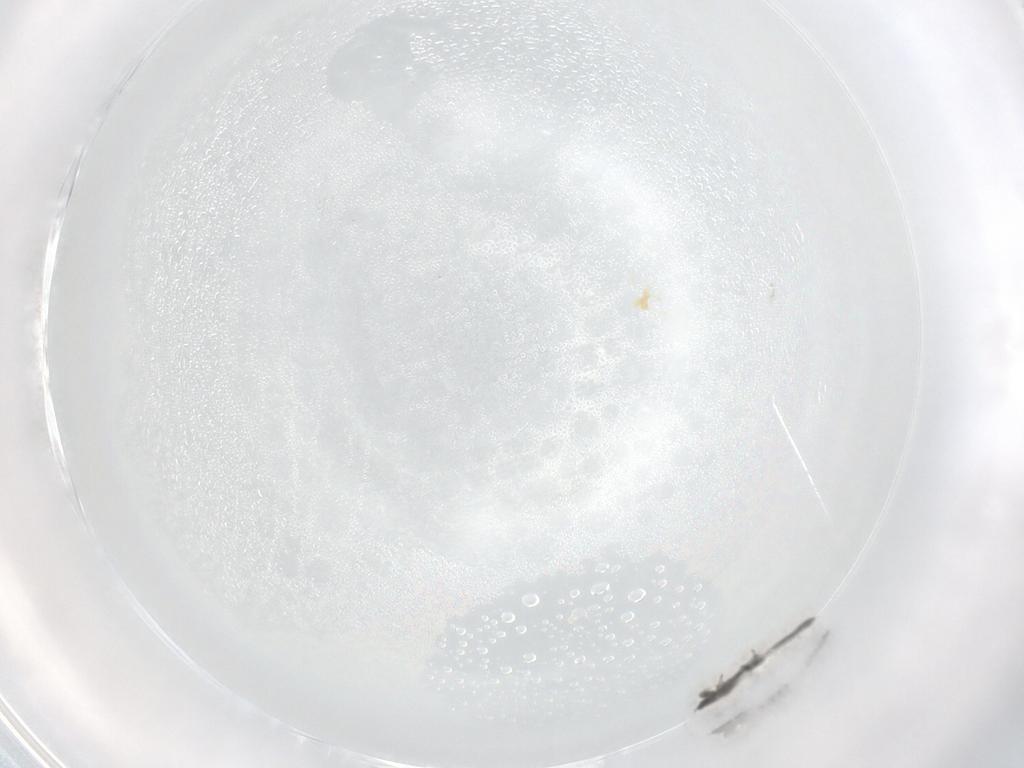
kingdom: Animalia
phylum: Arthropoda
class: Insecta
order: Thysanoptera
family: Thripidae
